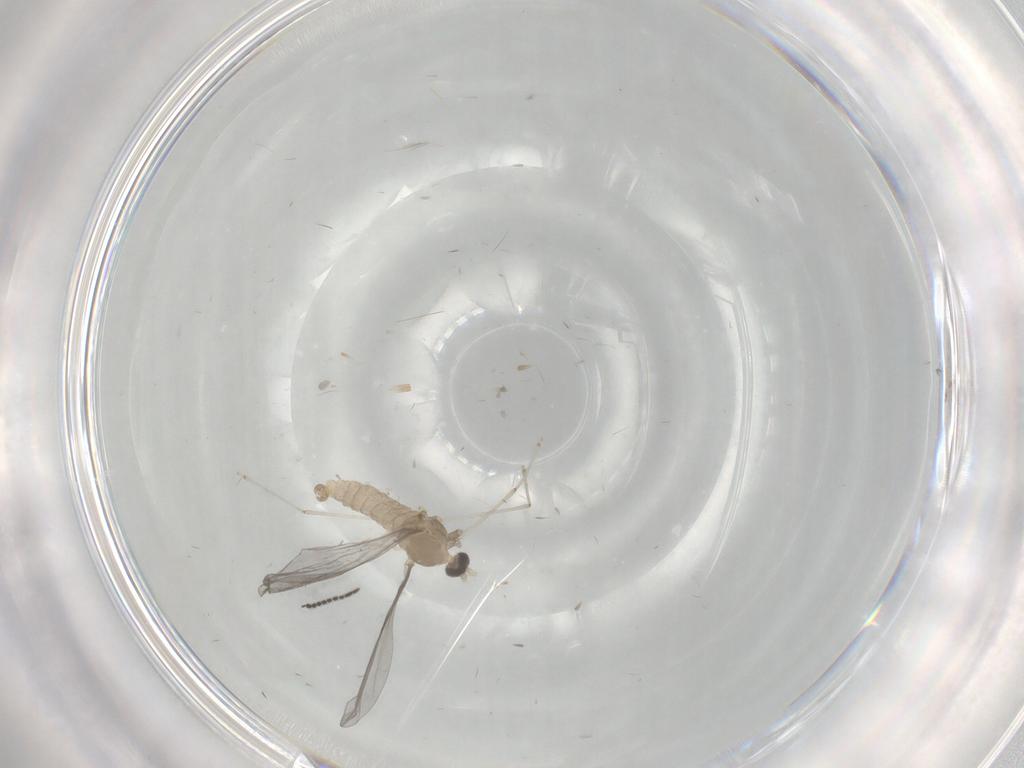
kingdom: Animalia
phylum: Arthropoda
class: Insecta
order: Diptera
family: Cecidomyiidae
